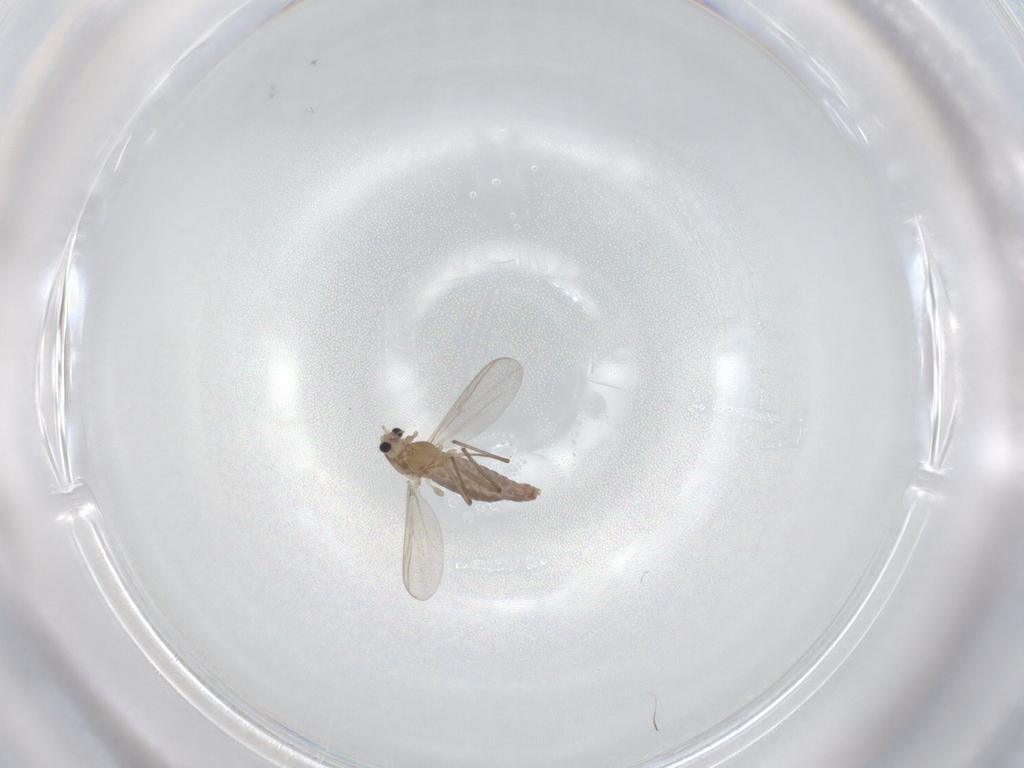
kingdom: Animalia
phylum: Arthropoda
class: Insecta
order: Diptera
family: Chironomidae
